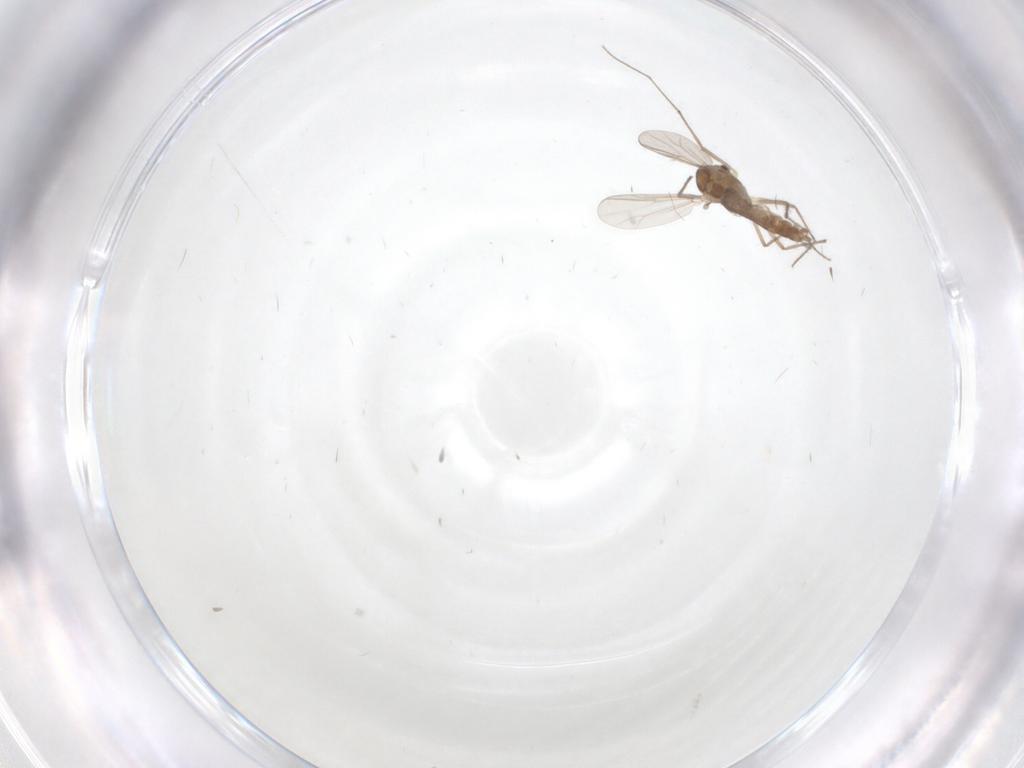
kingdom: Animalia
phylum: Arthropoda
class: Insecta
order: Diptera
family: Chironomidae
